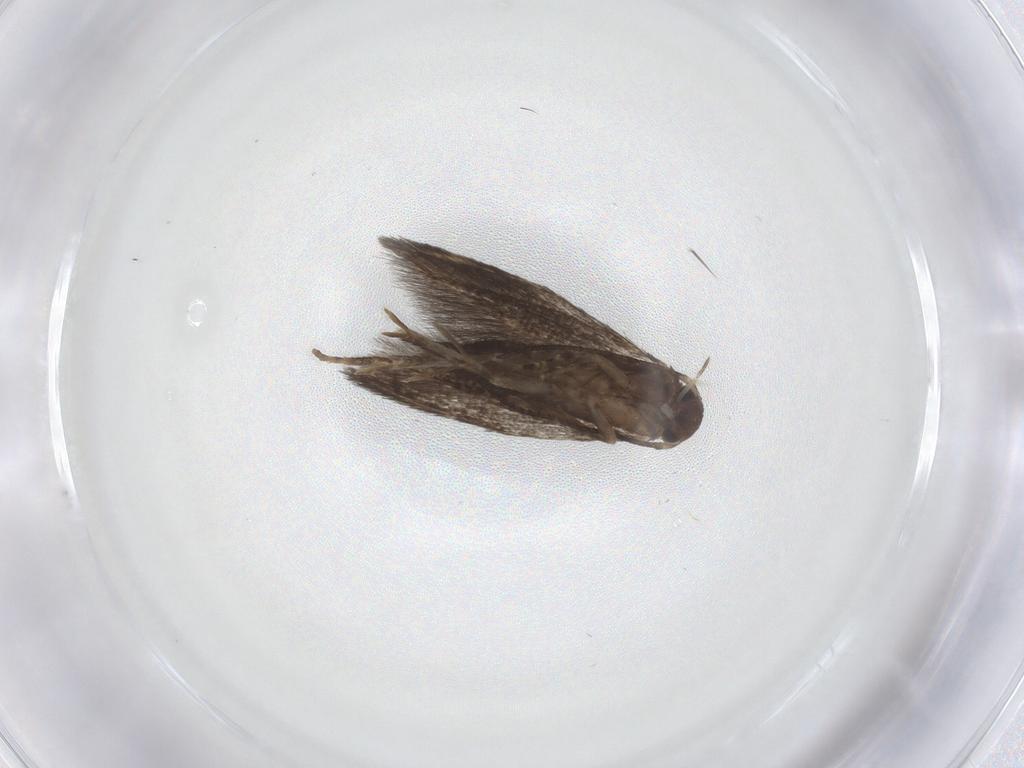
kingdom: Animalia
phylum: Arthropoda
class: Insecta
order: Lepidoptera
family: Elachistidae
